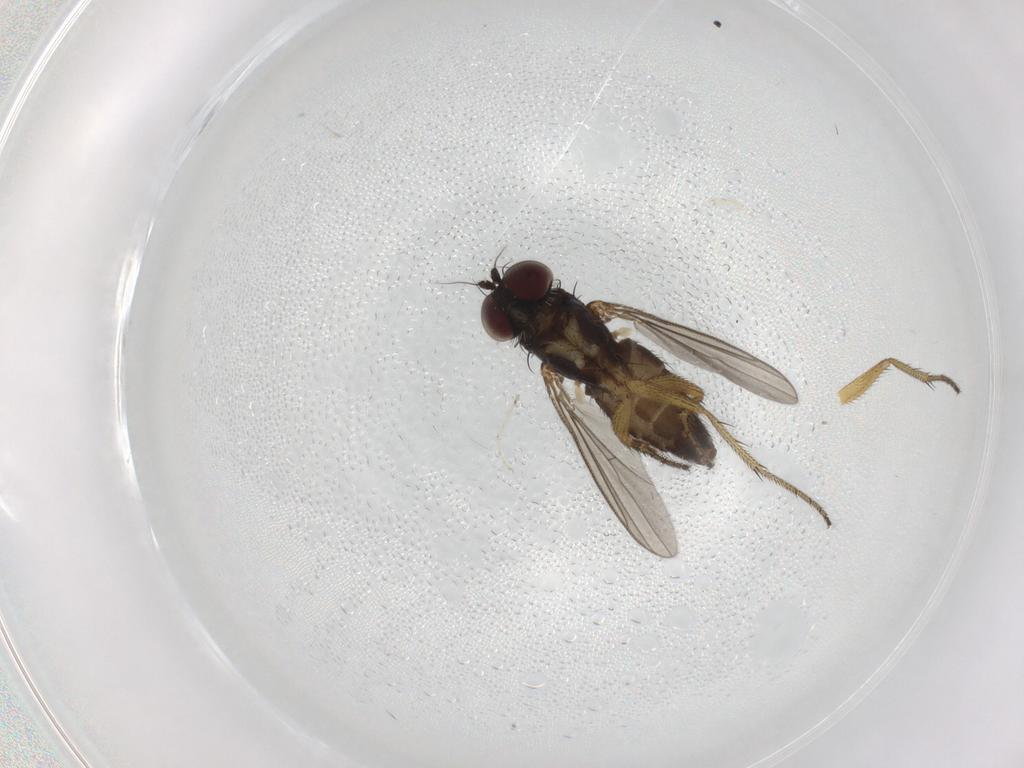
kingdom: Animalia
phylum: Arthropoda
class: Insecta
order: Diptera
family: Dolichopodidae
